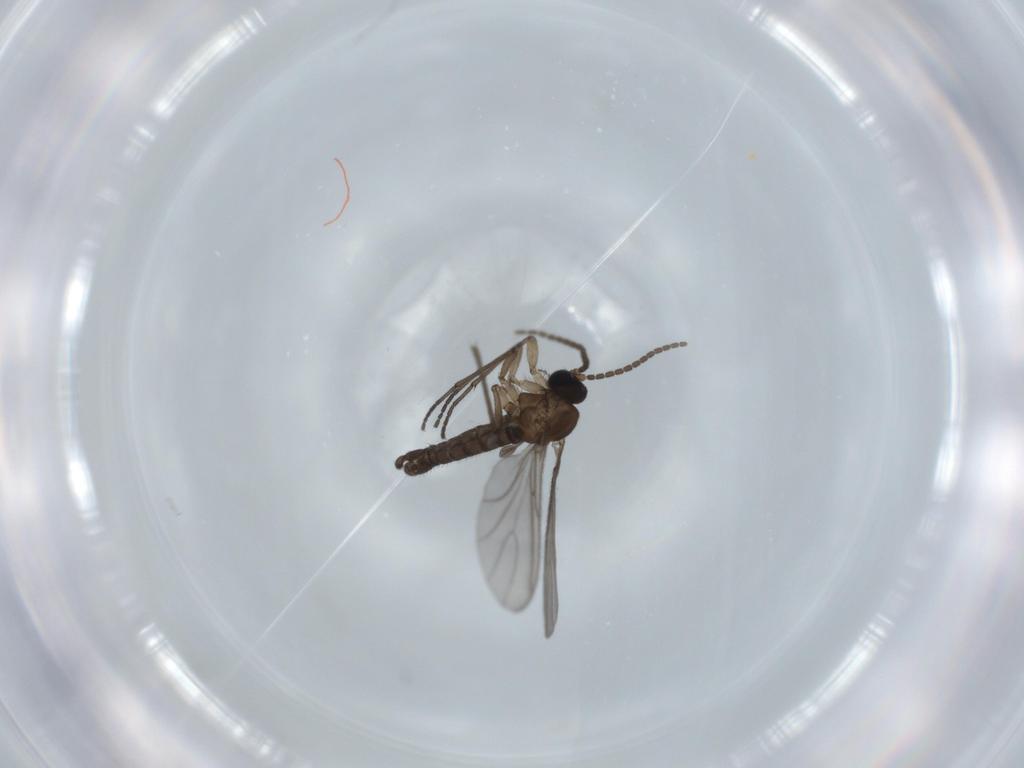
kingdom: Animalia
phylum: Arthropoda
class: Insecta
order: Diptera
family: Sciaridae
